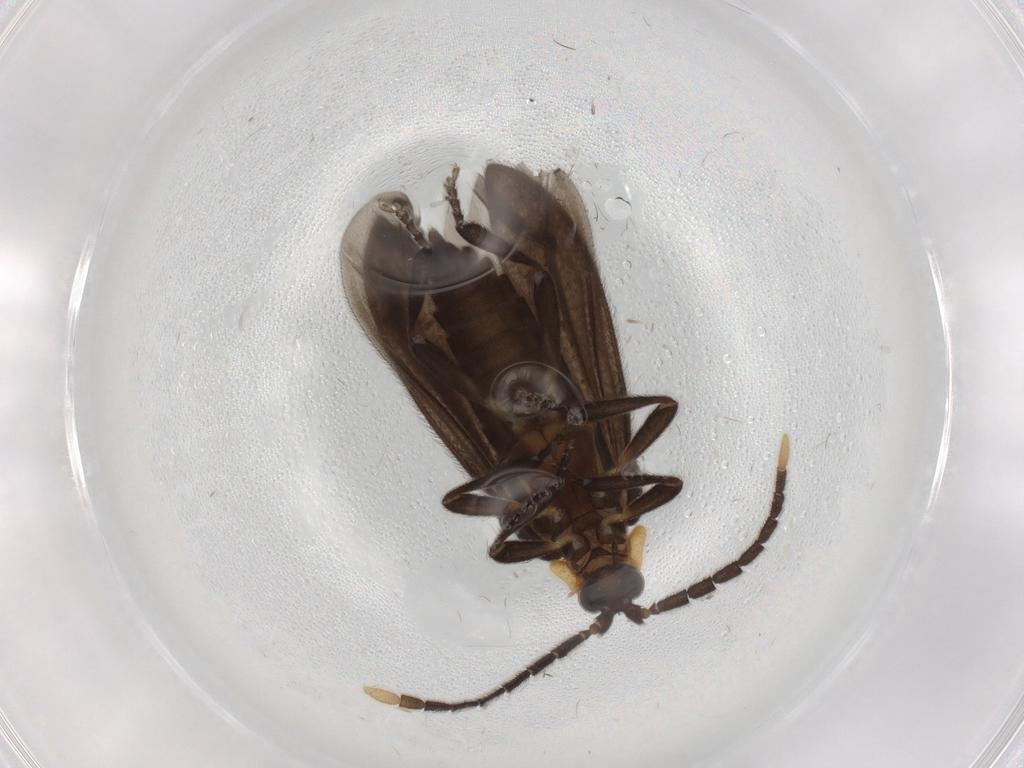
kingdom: Animalia
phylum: Arthropoda
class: Insecta
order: Coleoptera
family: Lycidae
